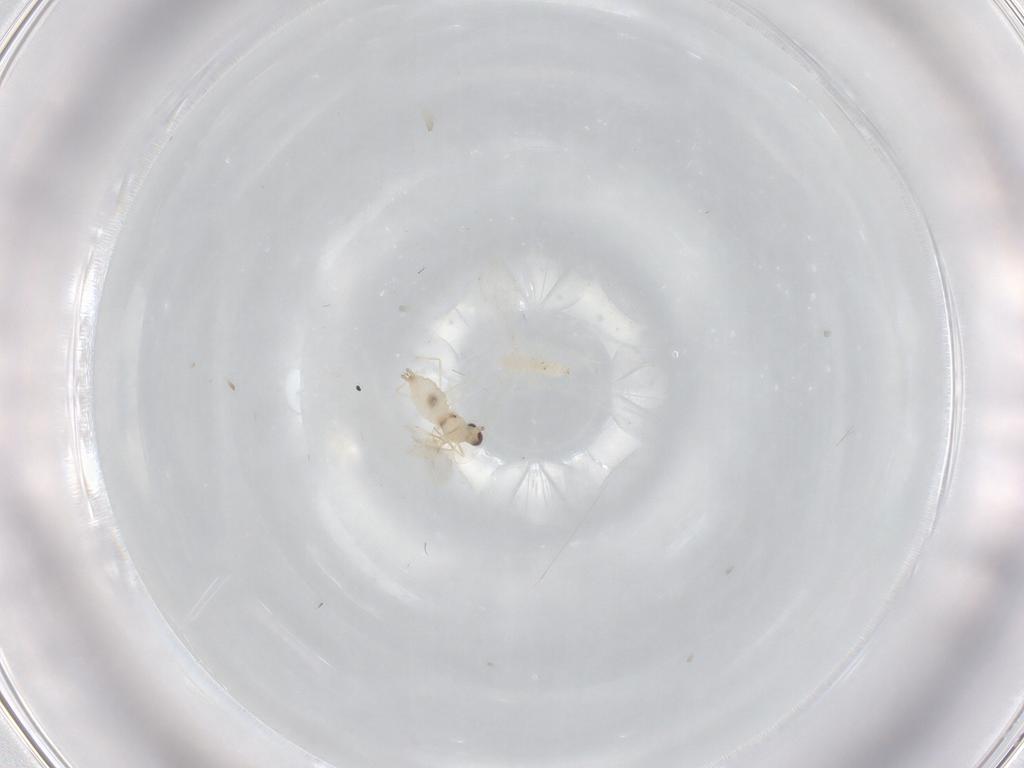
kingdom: Animalia
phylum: Arthropoda
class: Insecta
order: Diptera
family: Cecidomyiidae
